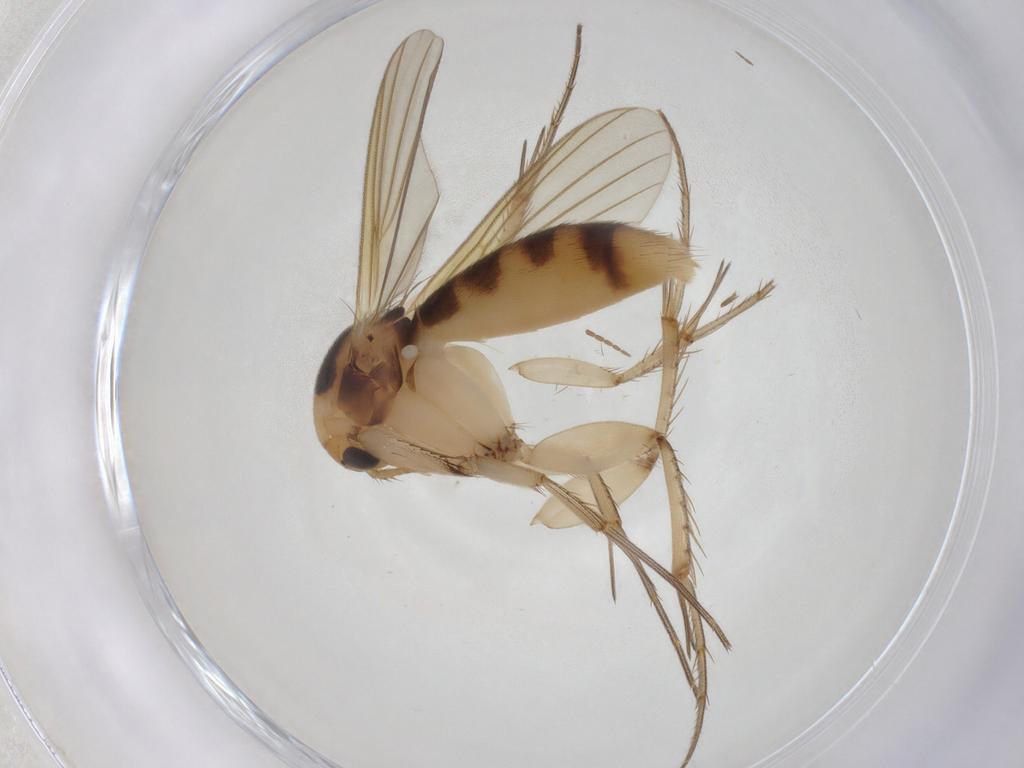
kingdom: Animalia
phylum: Arthropoda
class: Insecta
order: Diptera
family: Mycetophilidae
